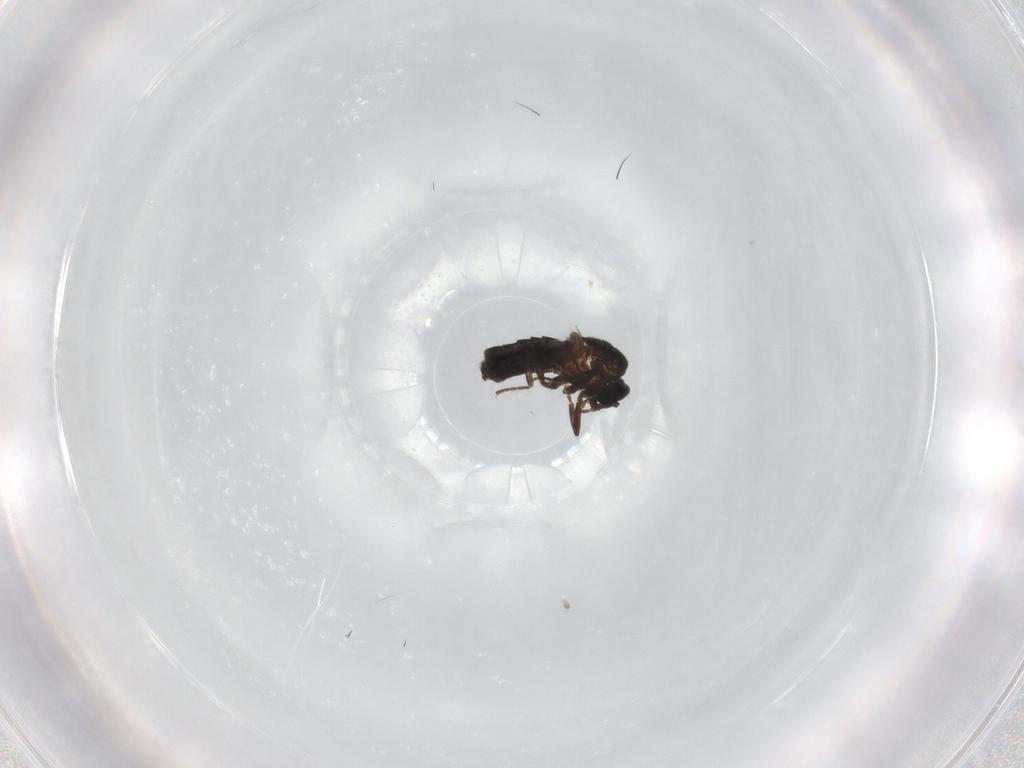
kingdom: Animalia
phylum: Arthropoda
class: Insecta
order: Diptera
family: Scatopsidae
